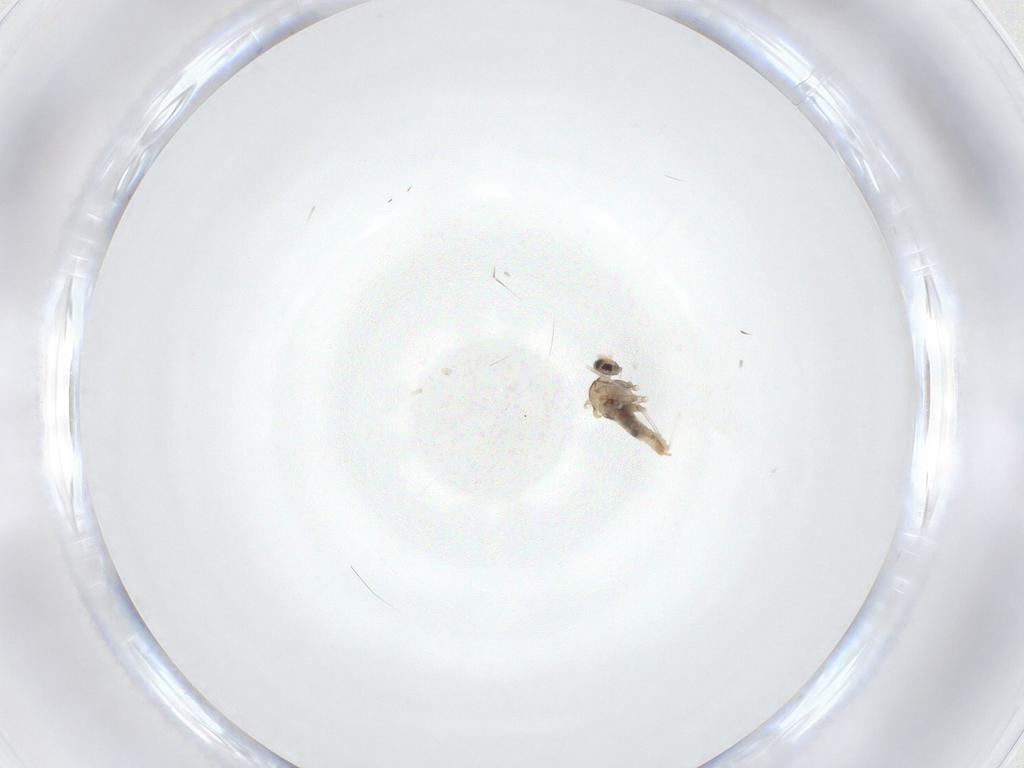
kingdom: Animalia
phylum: Arthropoda
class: Insecta
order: Diptera
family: Cecidomyiidae
